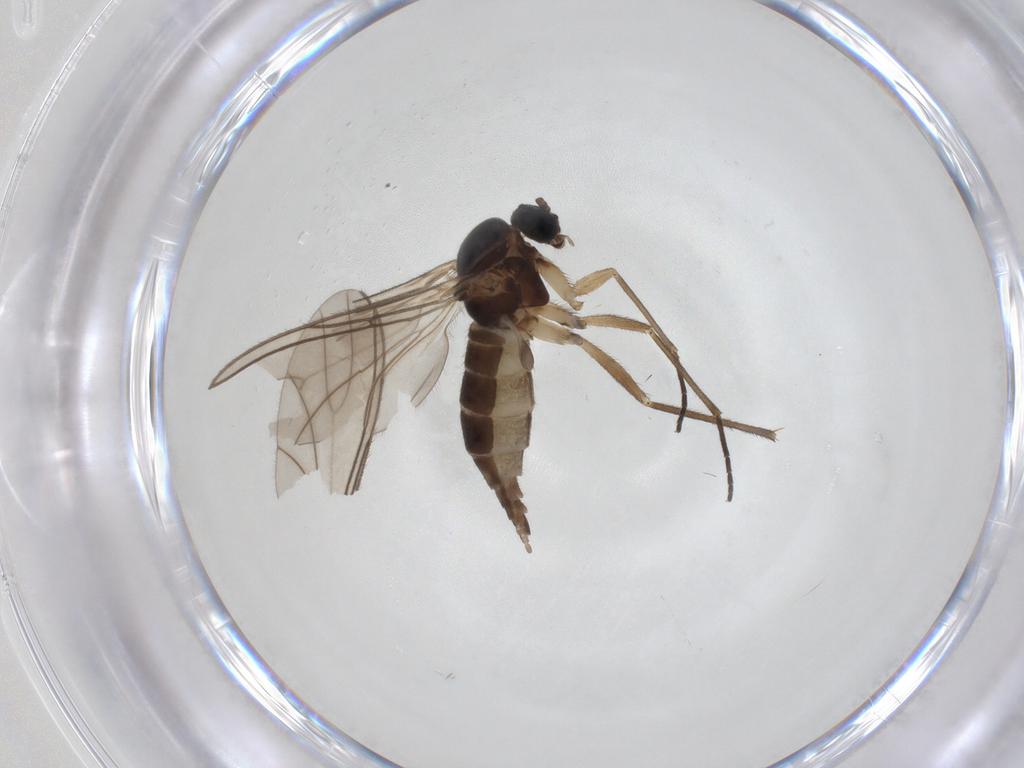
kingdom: Animalia
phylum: Arthropoda
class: Insecta
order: Diptera
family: Sciaridae
